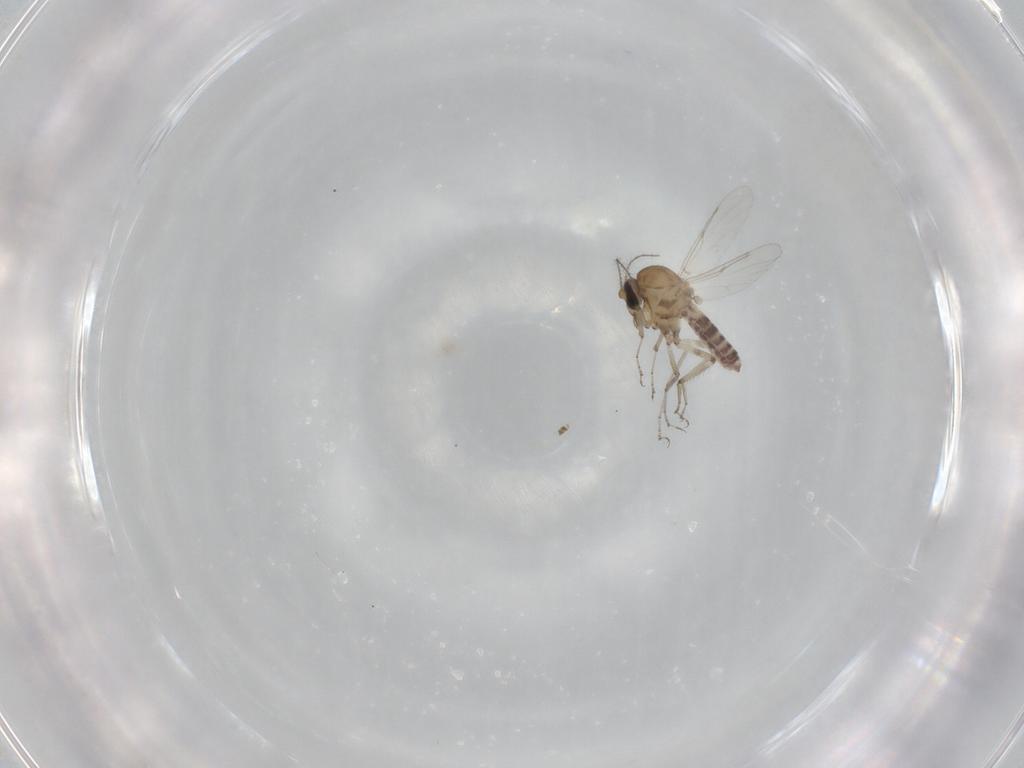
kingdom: Animalia
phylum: Arthropoda
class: Insecta
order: Diptera
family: Ceratopogonidae
